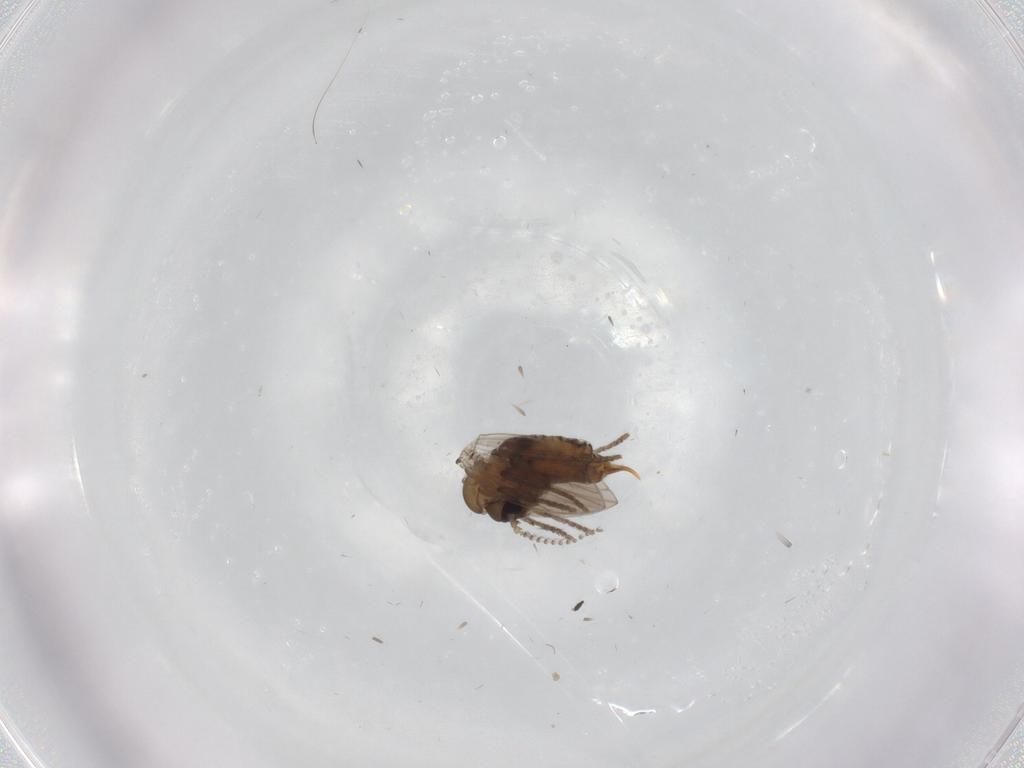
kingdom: Animalia
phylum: Arthropoda
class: Insecta
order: Diptera
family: Psychodidae
